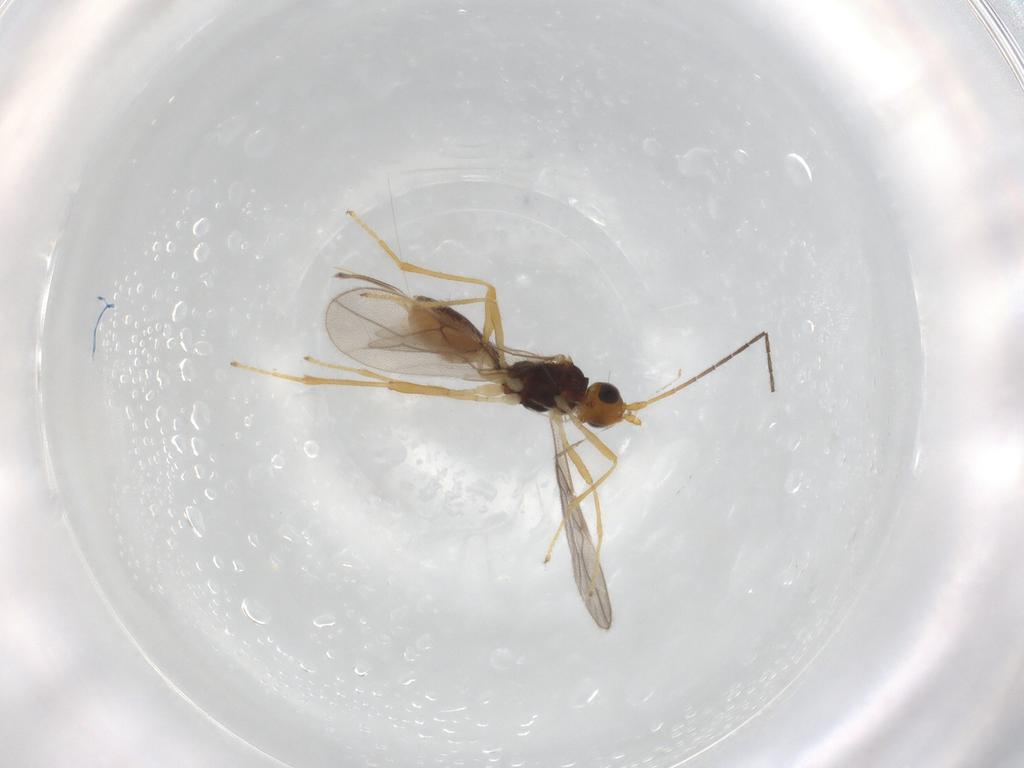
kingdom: Animalia
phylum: Arthropoda
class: Insecta
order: Hymenoptera
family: Braconidae
